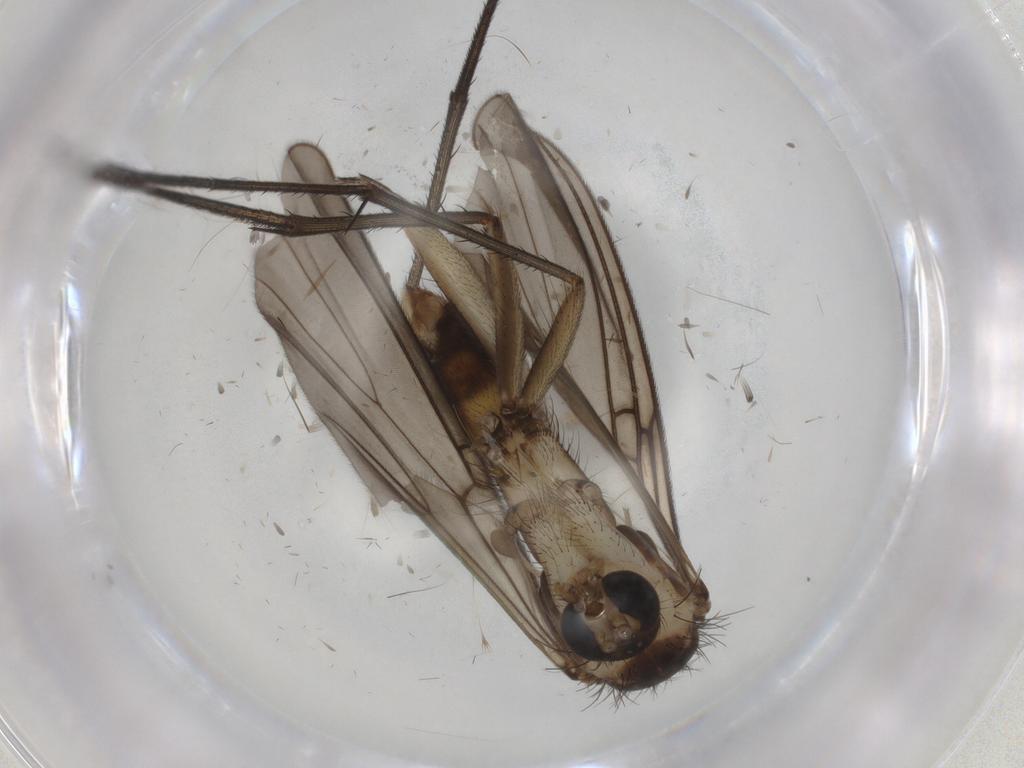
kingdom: Animalia
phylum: Arthropoda
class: Insecta
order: Diptera
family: Mycetophilidae
